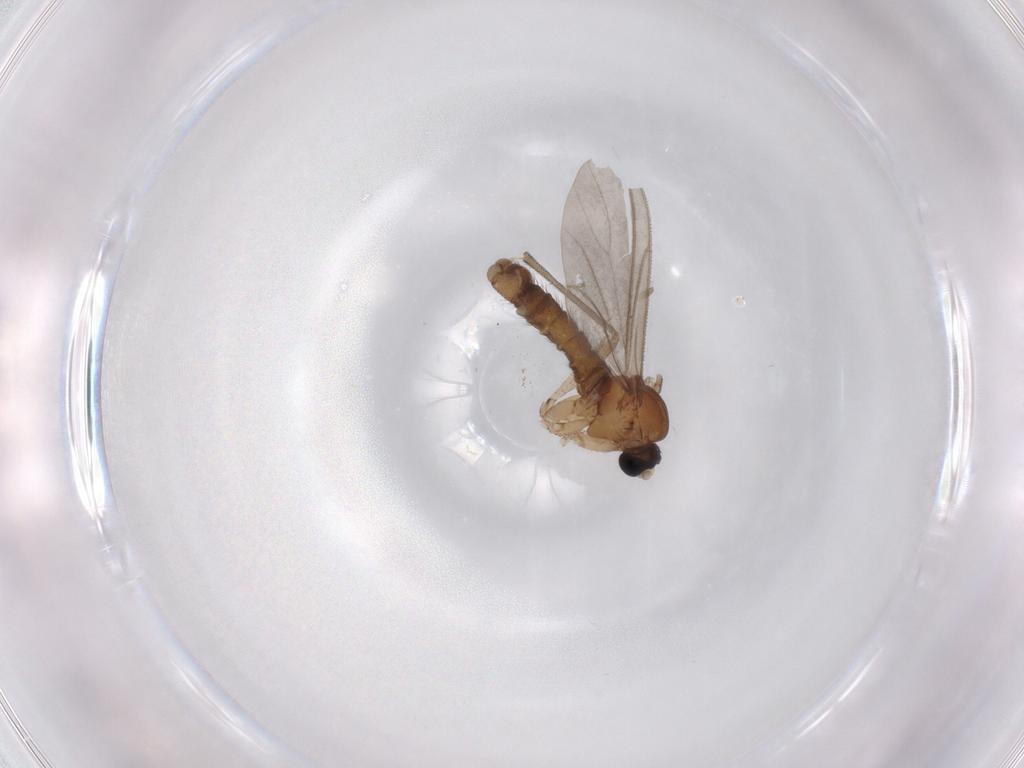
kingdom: Animalia
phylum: Arthropoda
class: Insecta
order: Diptera
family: Sciaridae
